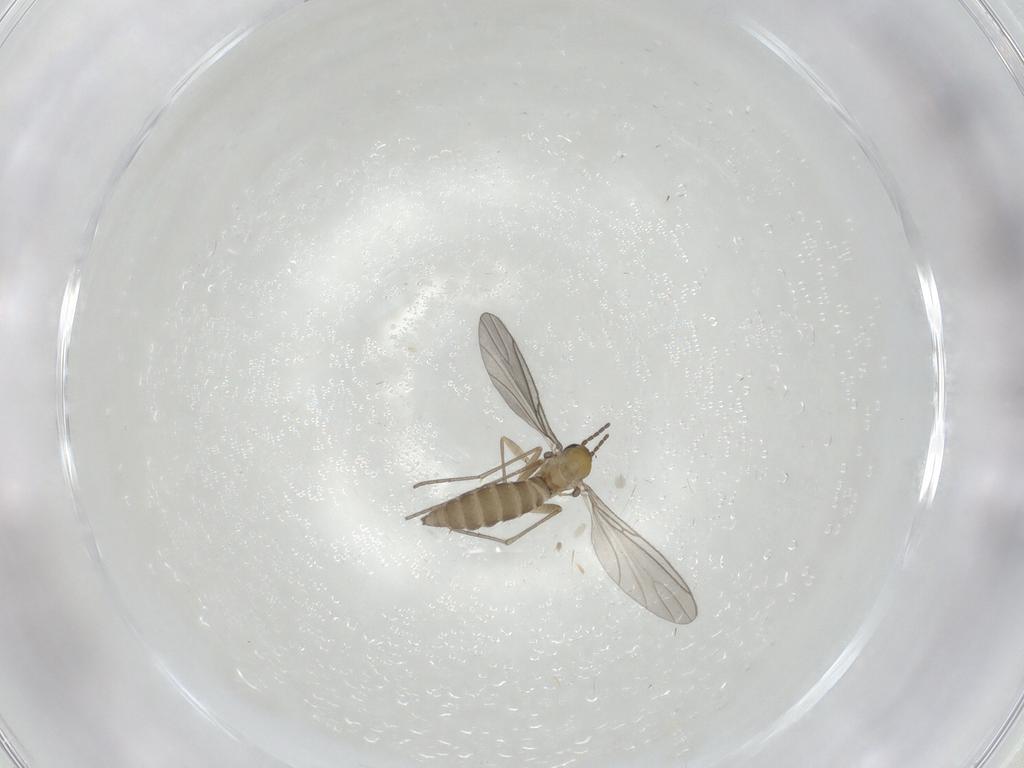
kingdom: Animalia
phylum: Arthropoda
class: Insecta
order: Diptera
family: Sciaridae
